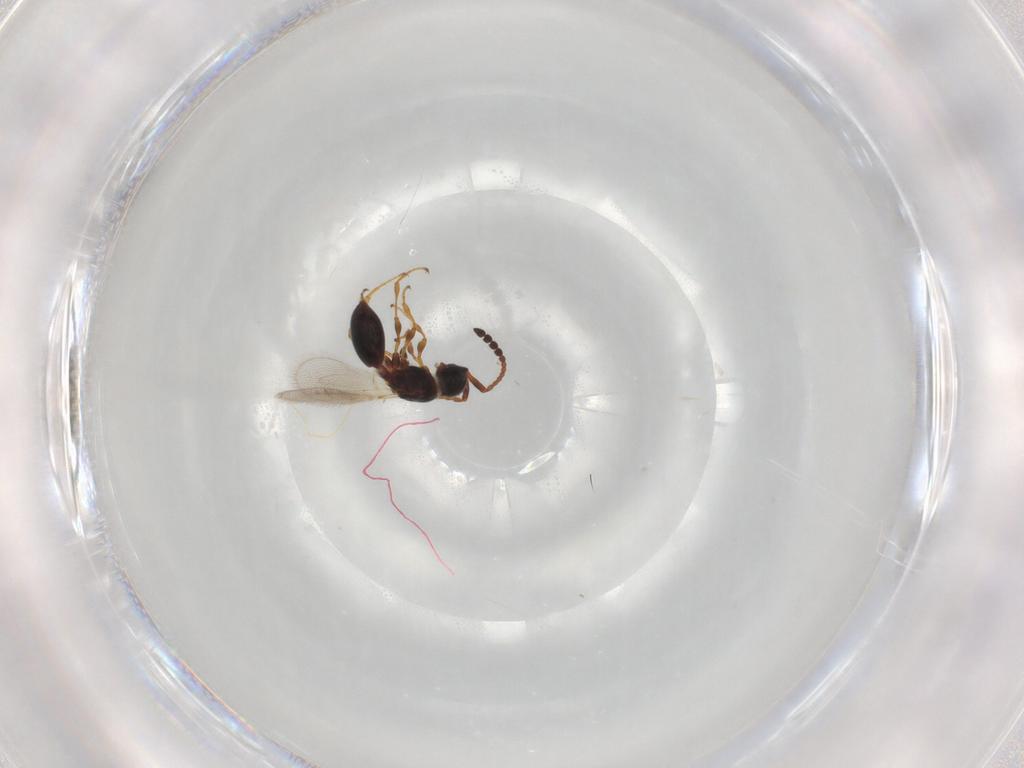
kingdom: Animalia
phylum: Arthropoda
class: Insecta
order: Hymenoptera
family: Diapriidae
